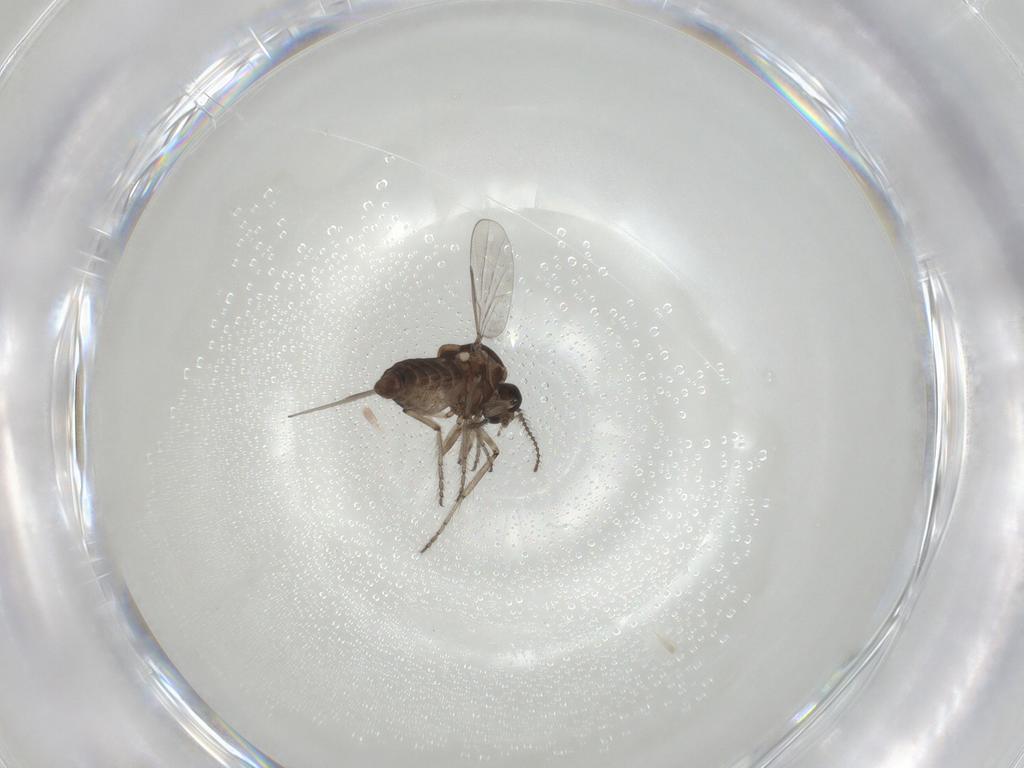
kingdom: Animalia
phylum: Arthropoda
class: Insecta
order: Diptera
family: Ceratopogonidae
